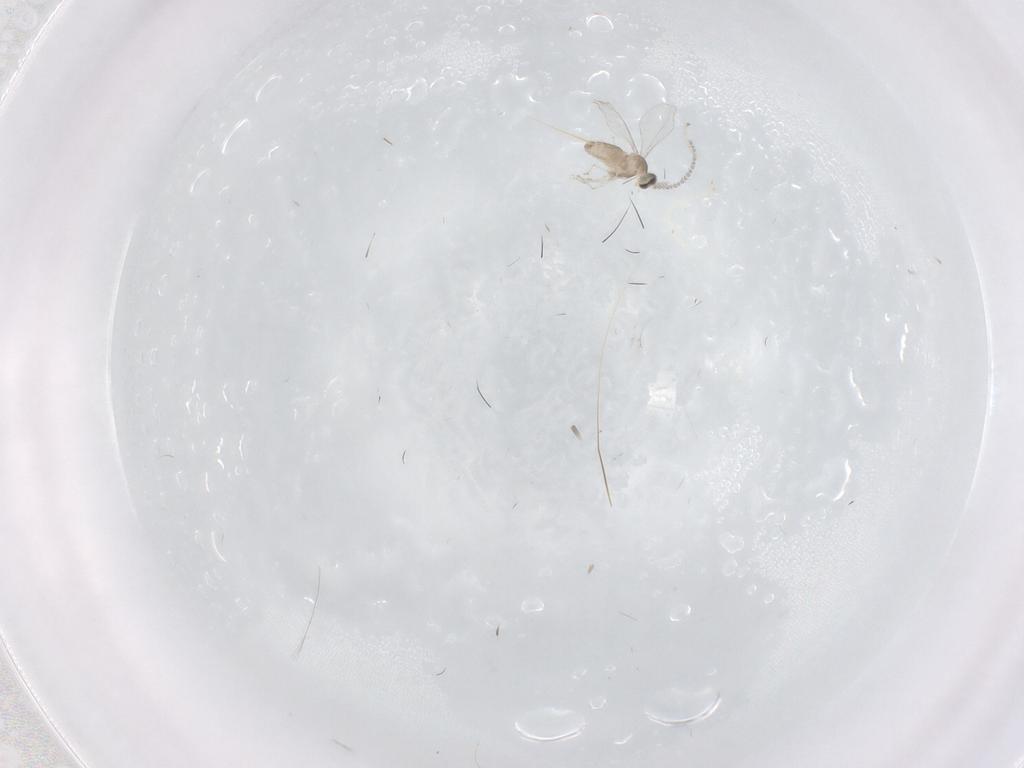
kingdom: Animalia
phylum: Arthropoda
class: Insecta
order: Diptera
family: Cecidomyiidae
